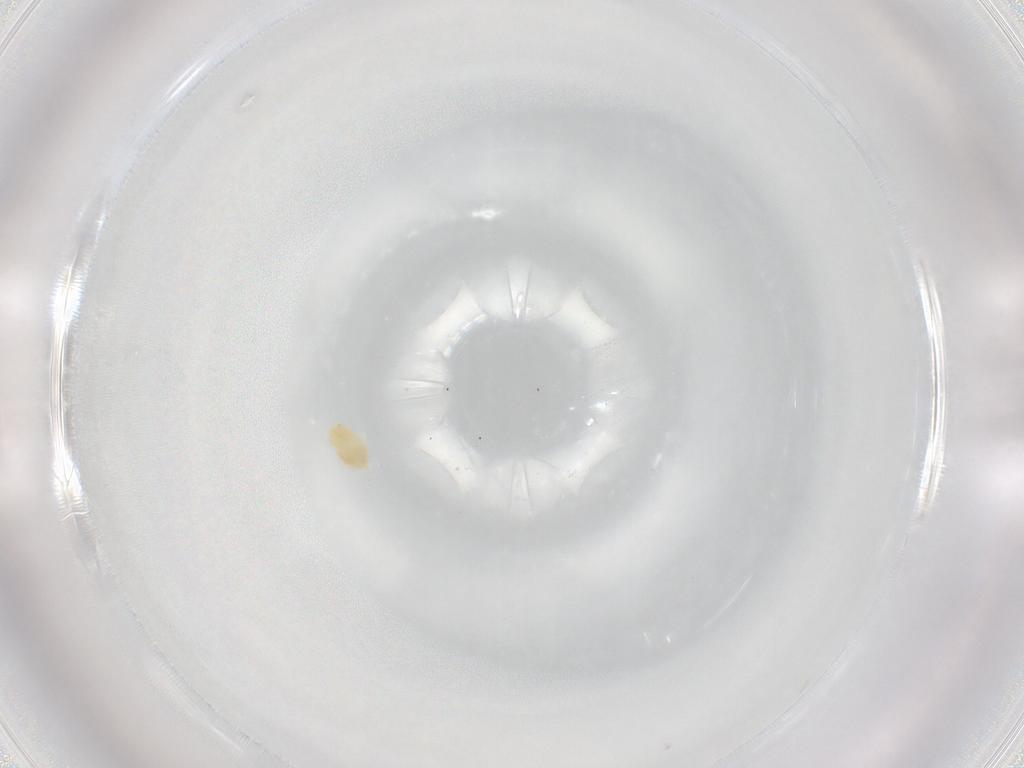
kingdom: Animalia
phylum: Arthropoda
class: Arachnida
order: Trombidiformes
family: Eupodidae
